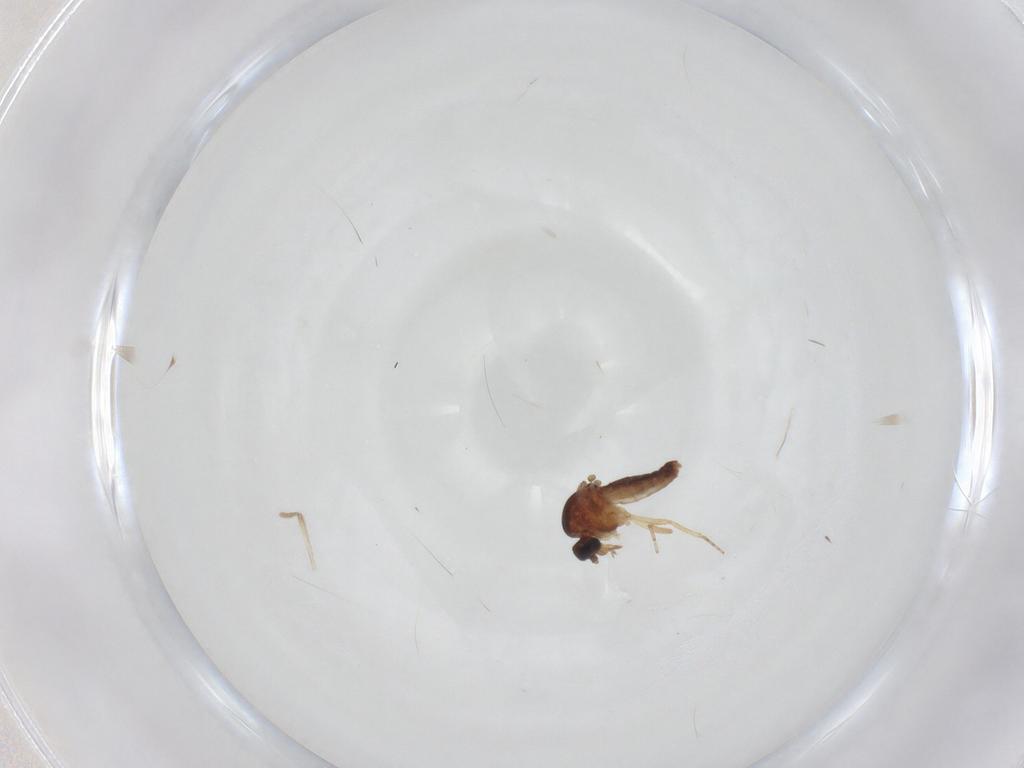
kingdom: Animalia
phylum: Arthropoda
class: Insecta
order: Diptera
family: Ceratopogonidae
